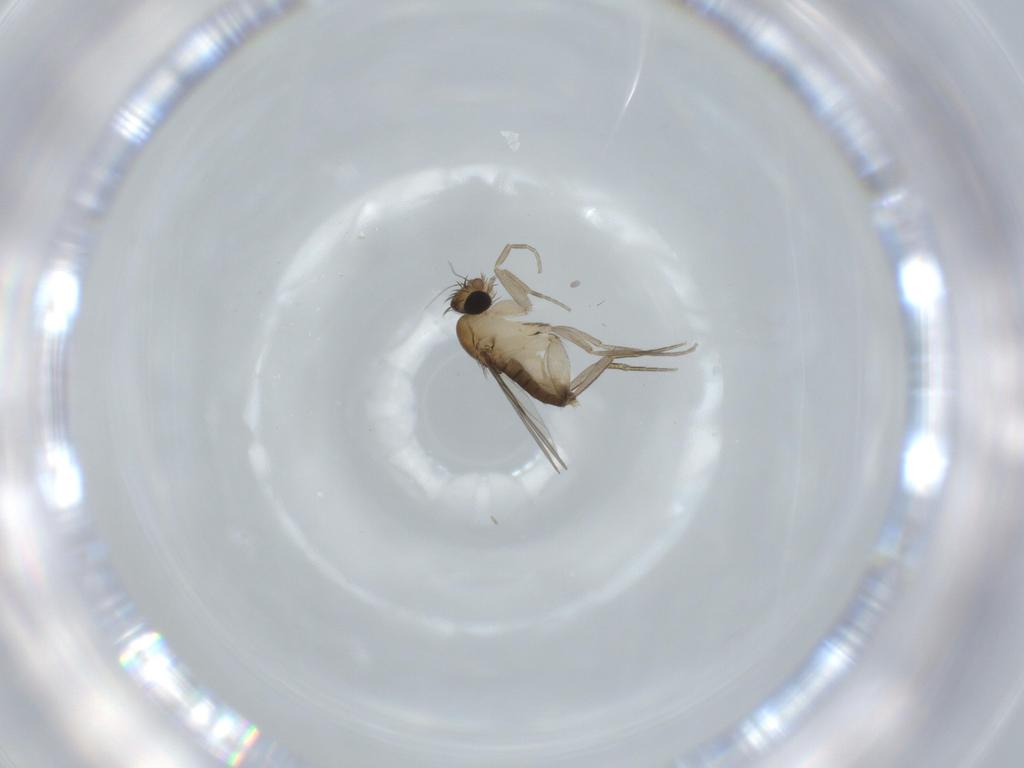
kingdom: Animalia
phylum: Arthropoda
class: Insecta
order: Diptera
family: Phoridae
